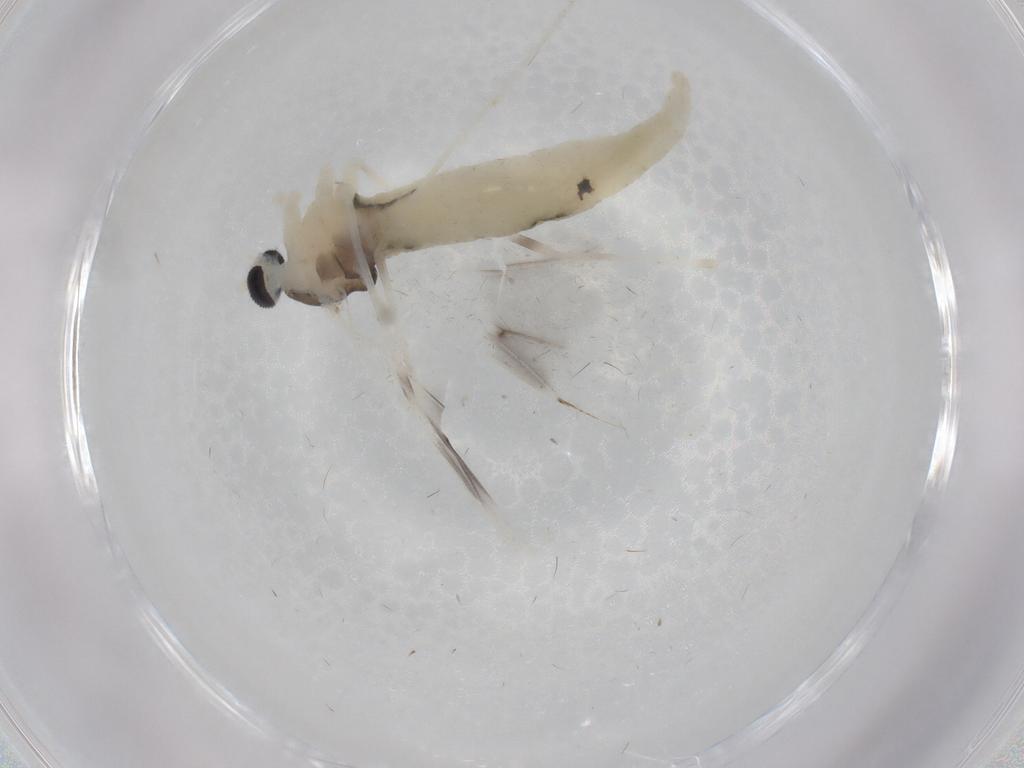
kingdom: Animalia
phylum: Arthropoda
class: Insecta
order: Diptera
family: Cecidomyiidae
